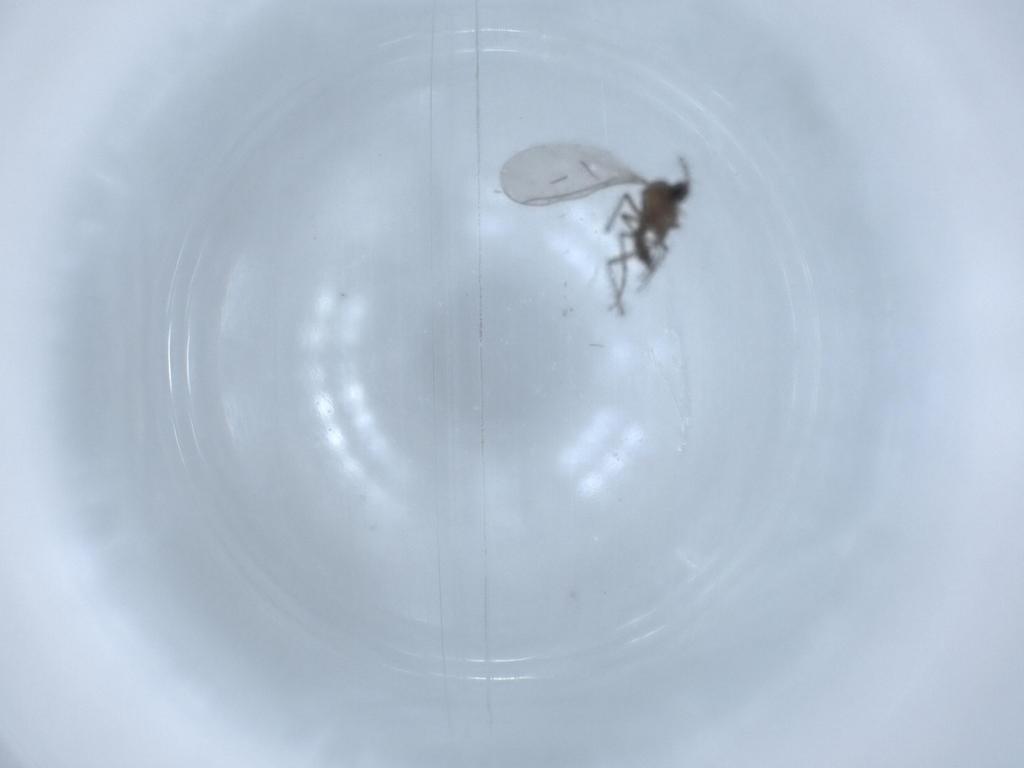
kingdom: Animalia
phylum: Arthropoda
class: Insecta
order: Diptera
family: Sciaridae
